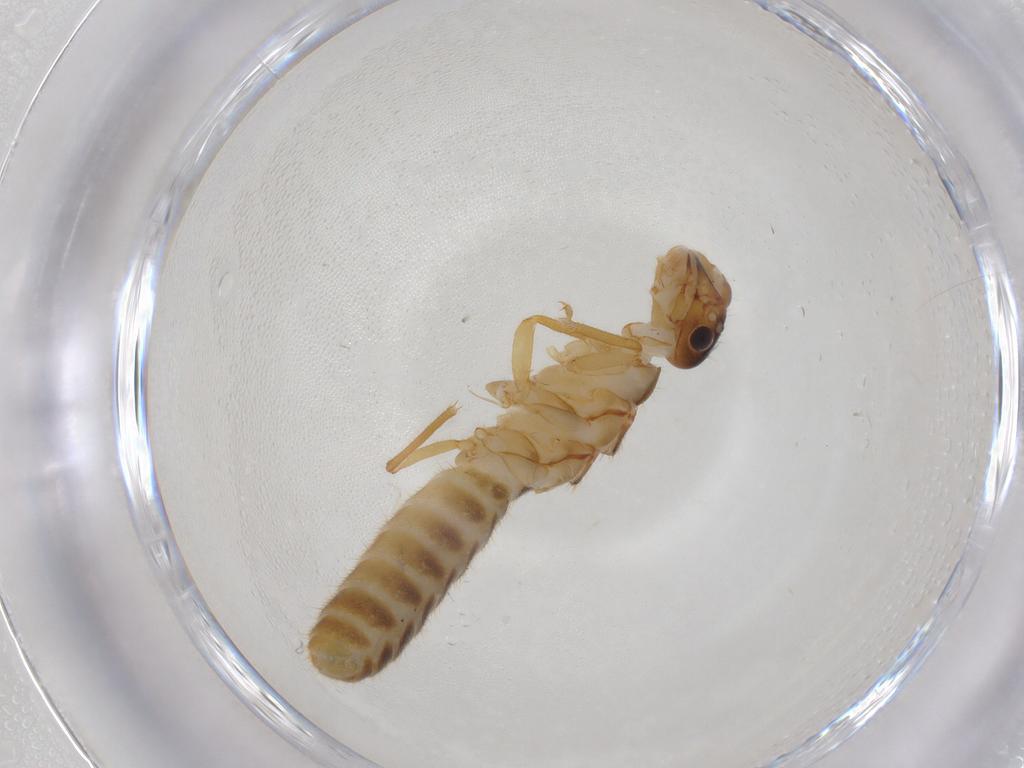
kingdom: Animalia
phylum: Arthropoda
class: Insecta
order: Blattodea
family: Termitidae
